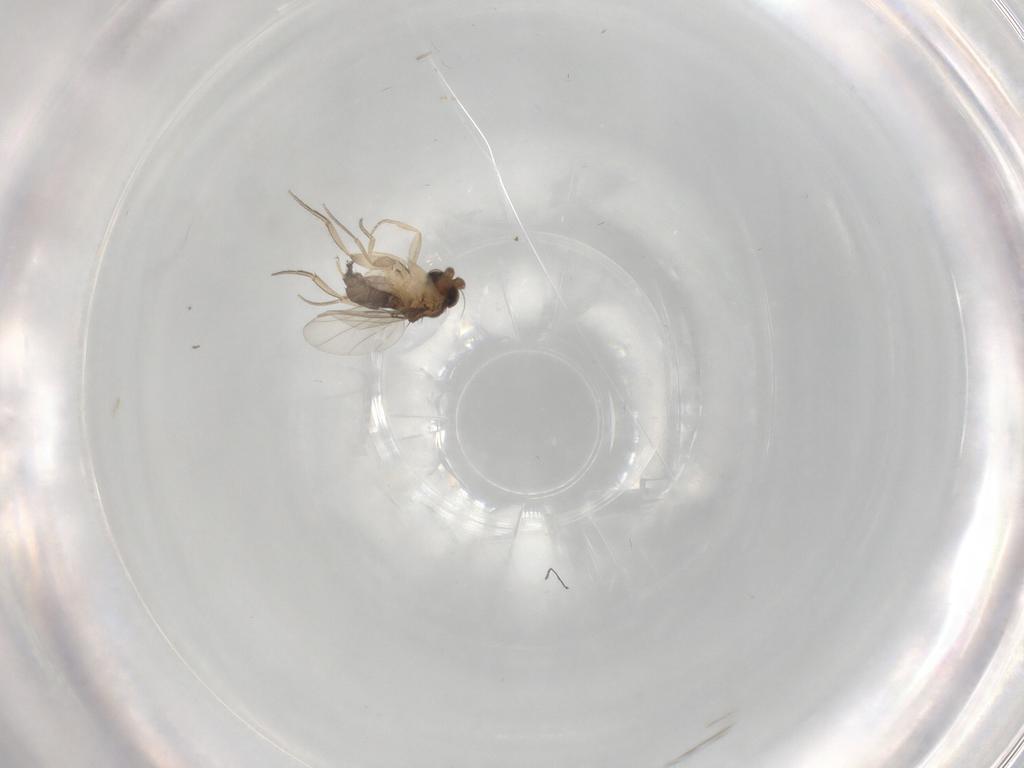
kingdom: Animalia
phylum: Arthropoda
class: Insecta
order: Diptera
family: Phoridae
